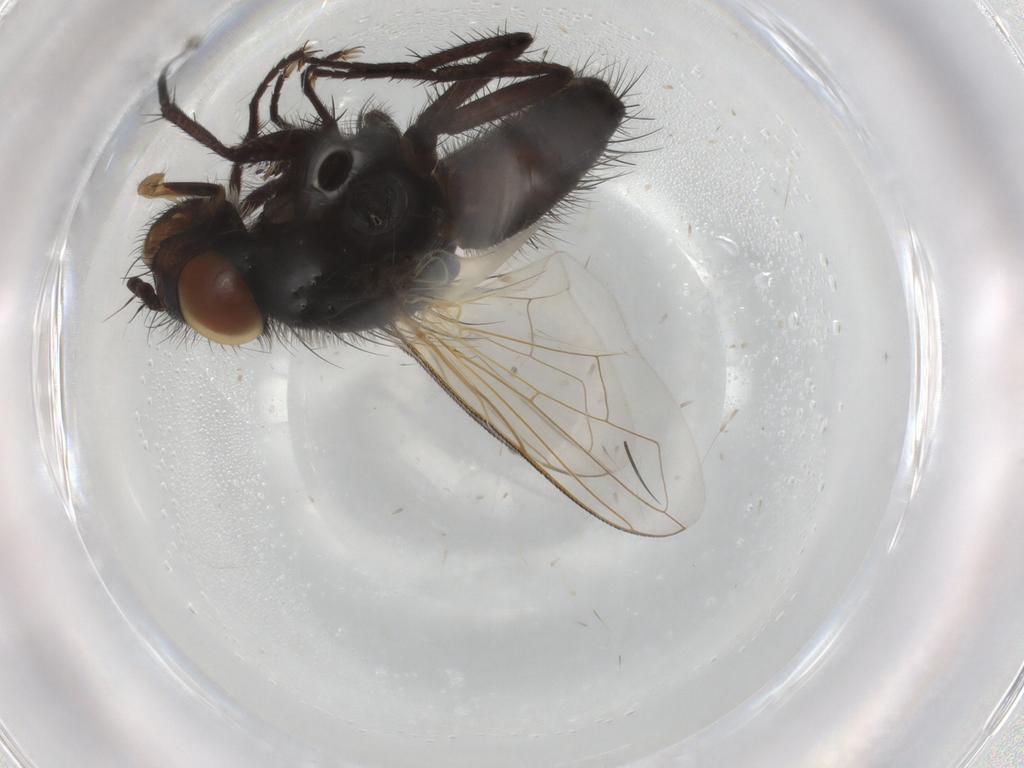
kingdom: Animalia
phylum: Arthropoda
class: Insecta
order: Diptera
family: Tachinidae
